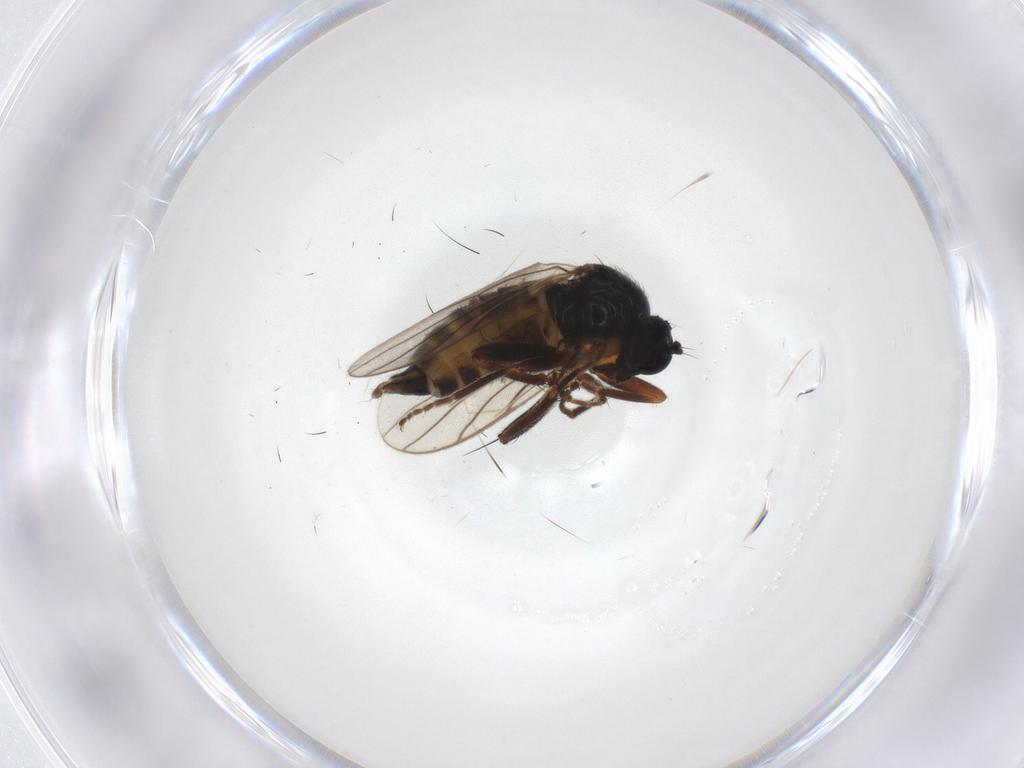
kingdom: Animalia
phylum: Arthropoda
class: Insecta
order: Diptera
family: Hybotidae
